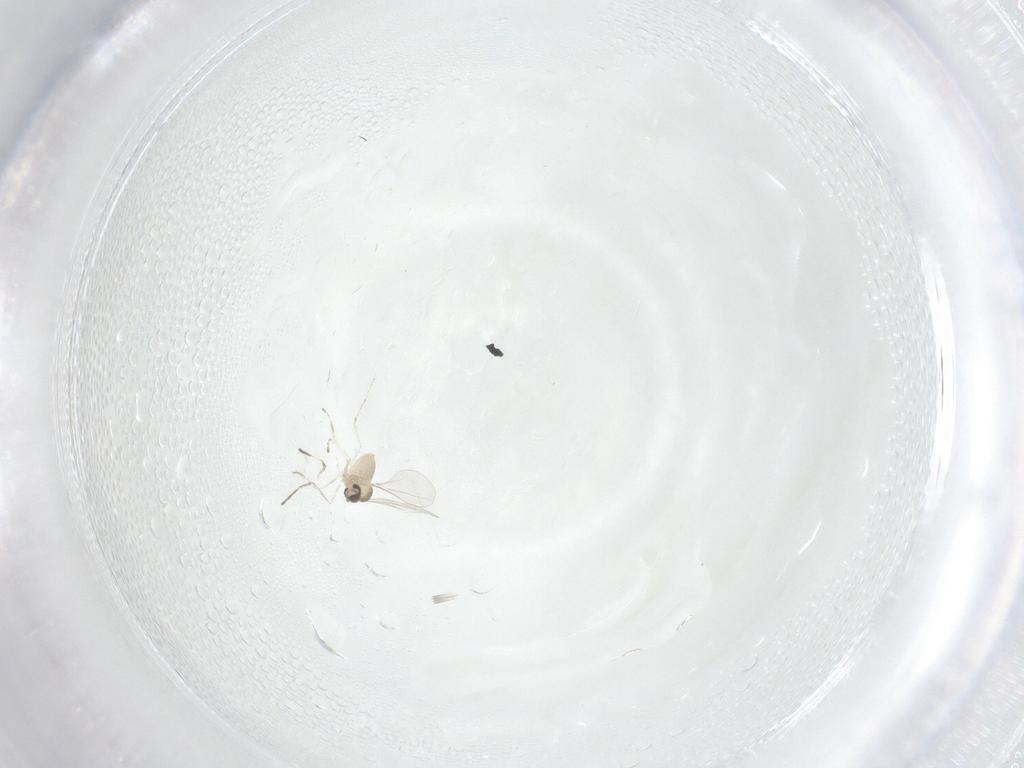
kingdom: Animalia
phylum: Arthropoda
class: Insecta
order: Diptera
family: Cecidomyiidae
